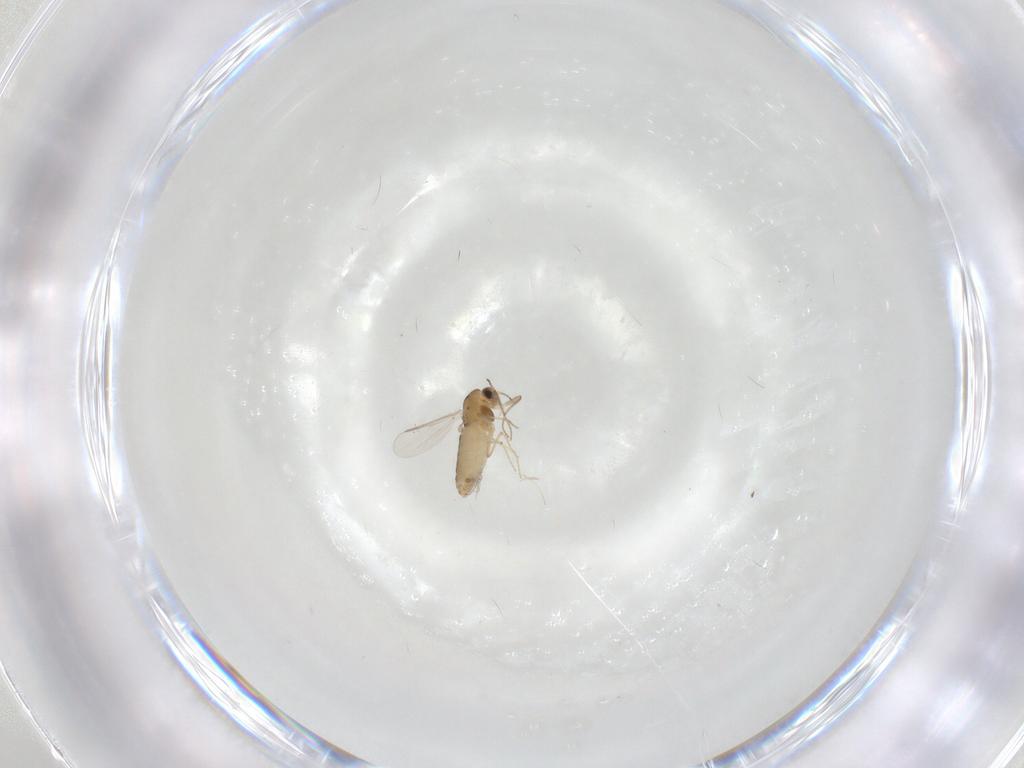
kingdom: Animalia
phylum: Arthropoda
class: Insecta
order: Diptera
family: Chironomidae
